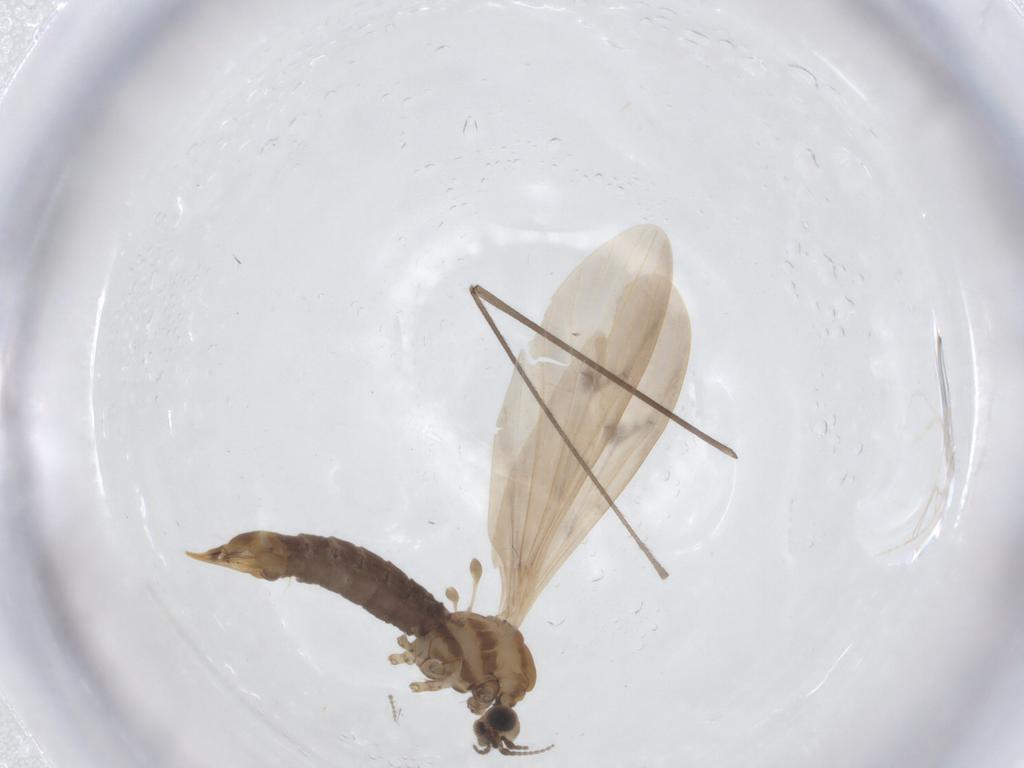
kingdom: Animalia
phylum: Arthropoda
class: Insecta
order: Diptera
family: Limoniidae
